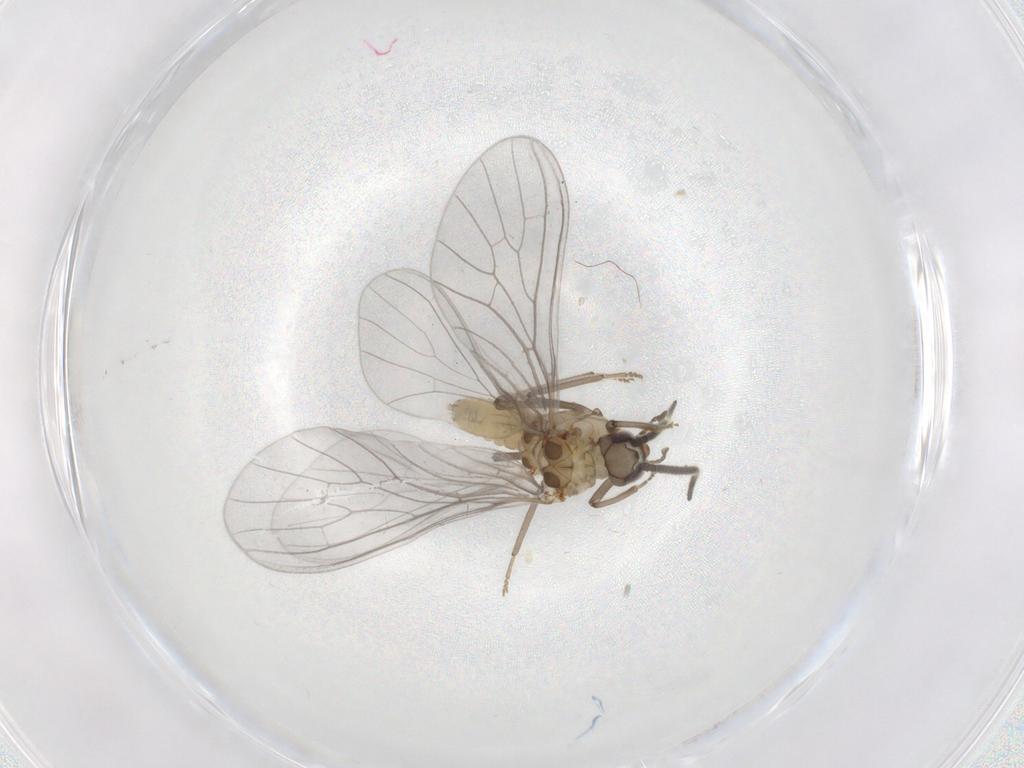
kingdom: Animalia
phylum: Arthropoda
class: Insecta
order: Neuroptera
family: Coniopterygidae
